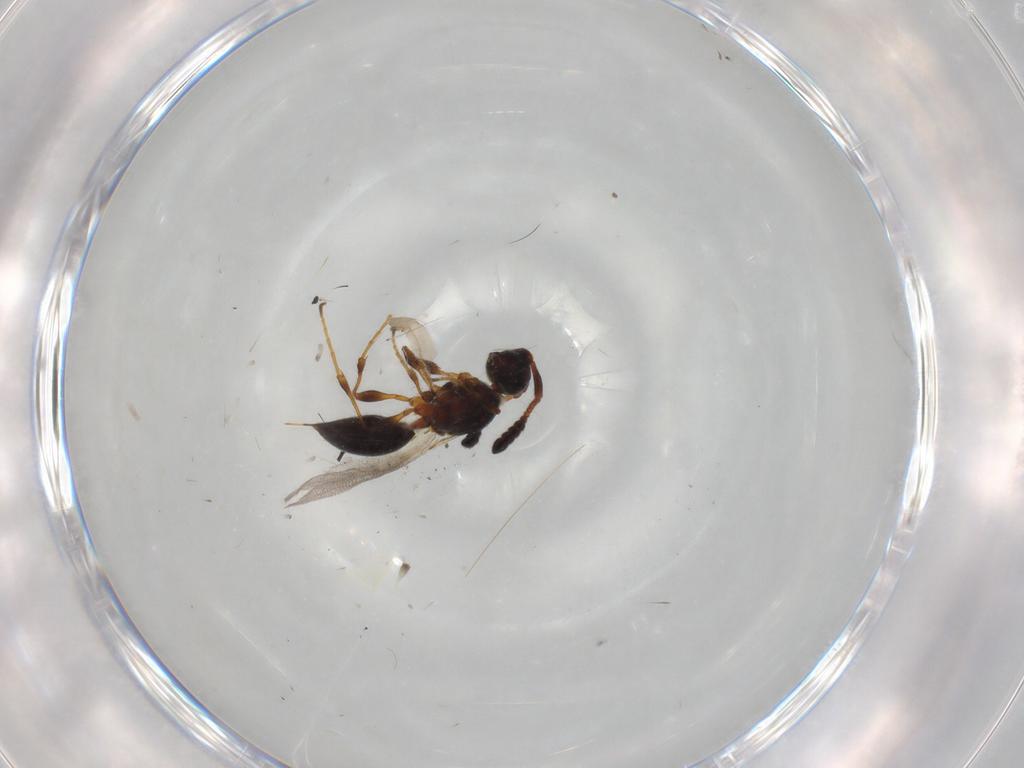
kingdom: Animalia
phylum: Arthropoda
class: Insecta
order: Hymenoptera
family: Diapriidae
